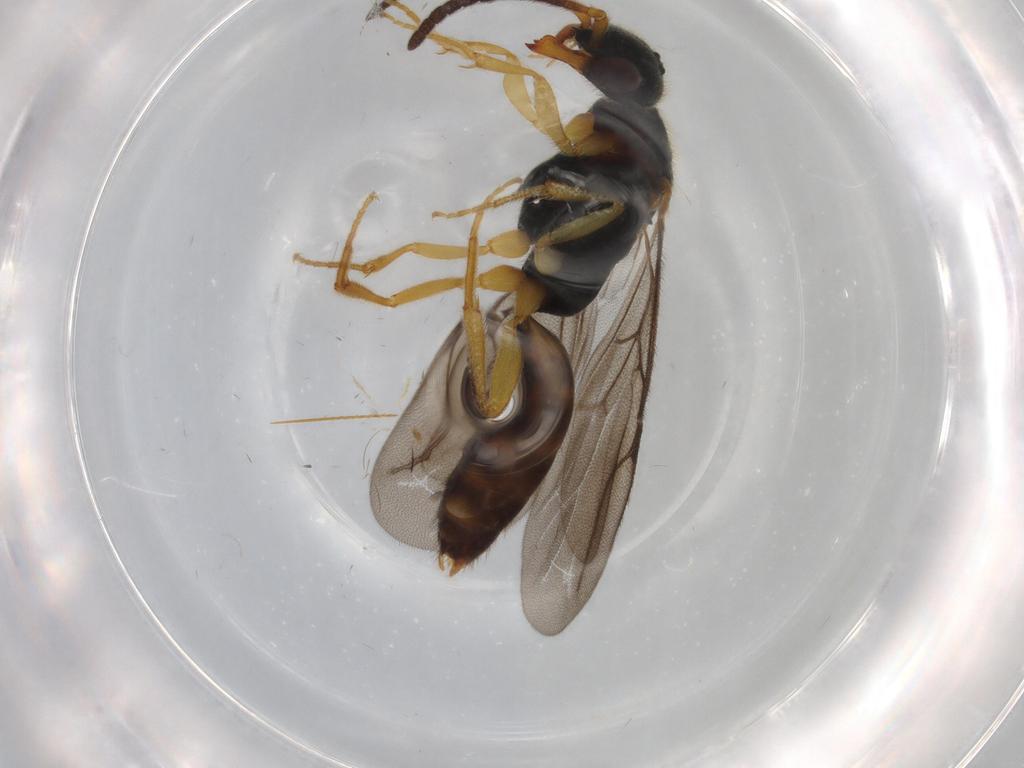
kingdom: Animalia
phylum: Arthropoda
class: Insecta
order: Hymenoptera
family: Bethylidae
